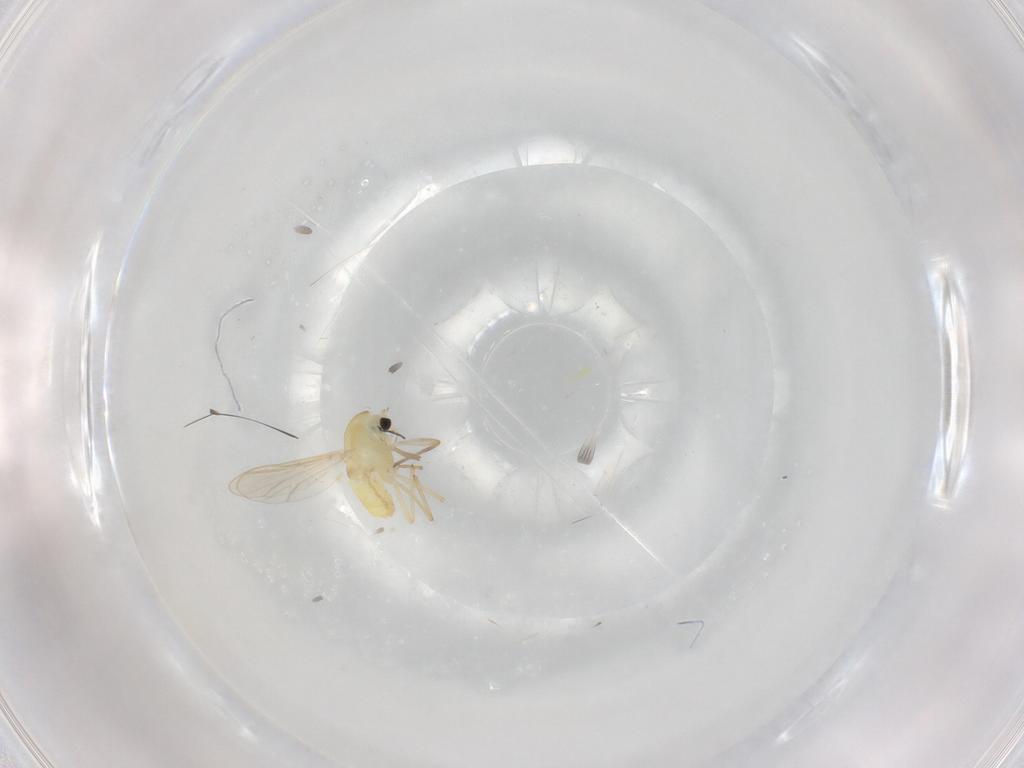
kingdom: Animalia
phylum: Arthropoda
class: Insecta
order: Diptera
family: Chironomidae
